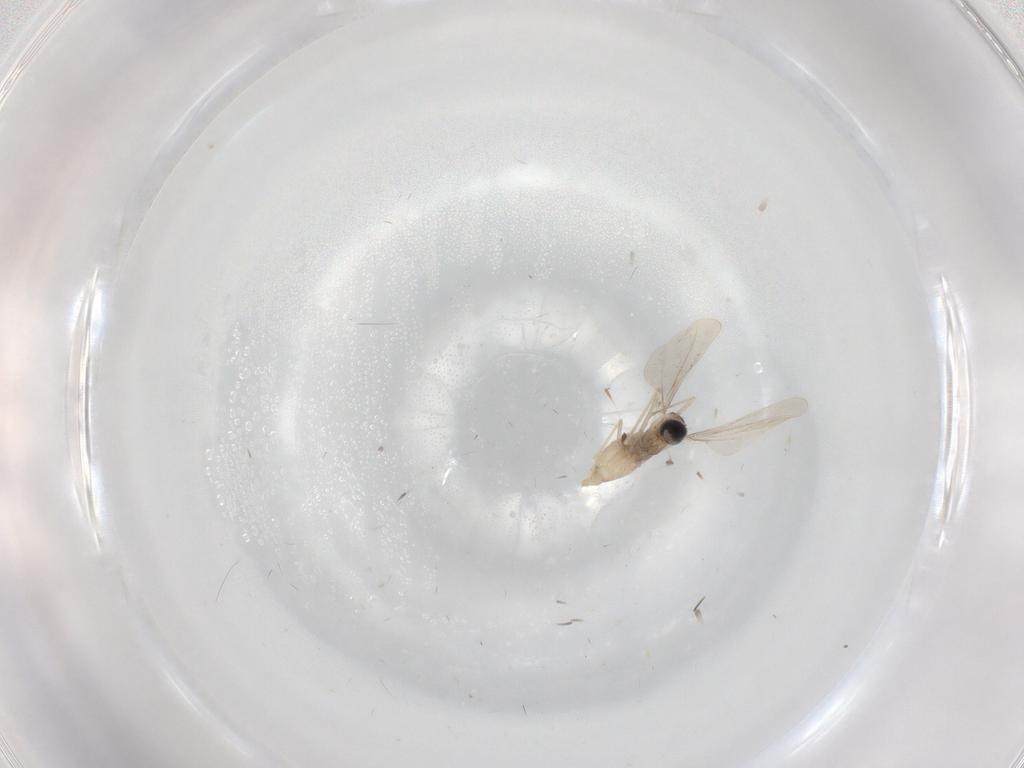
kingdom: Animalia
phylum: Arthropoda
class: Insecta
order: Diptera
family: Cecidomyiidae
